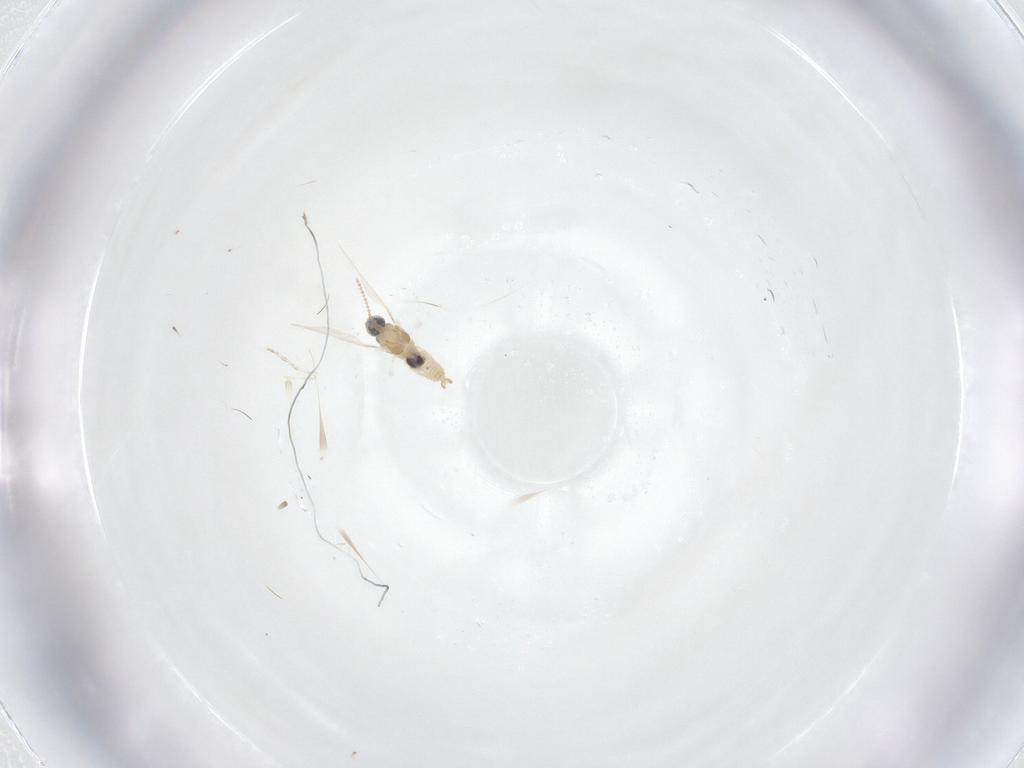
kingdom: Animalia
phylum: Arthropoda
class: Insecta
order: Diptera
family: Cecidomyiidae
